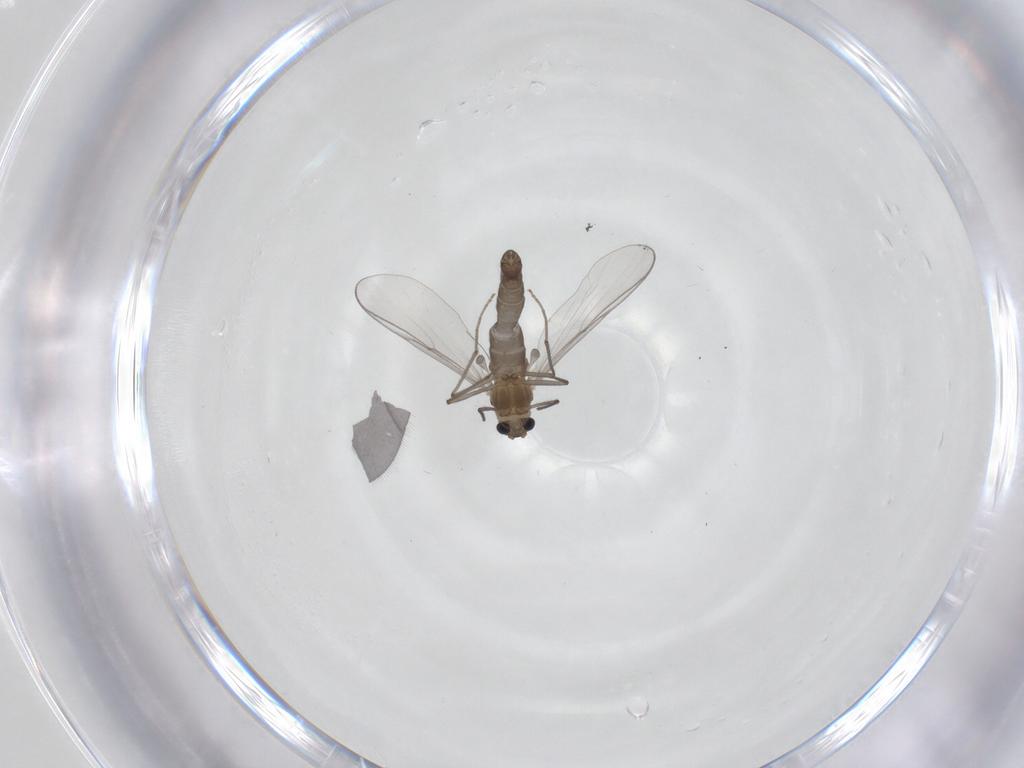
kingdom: Animalia
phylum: Arthropoda
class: Insecta
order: Diptera
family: Chironomidae
